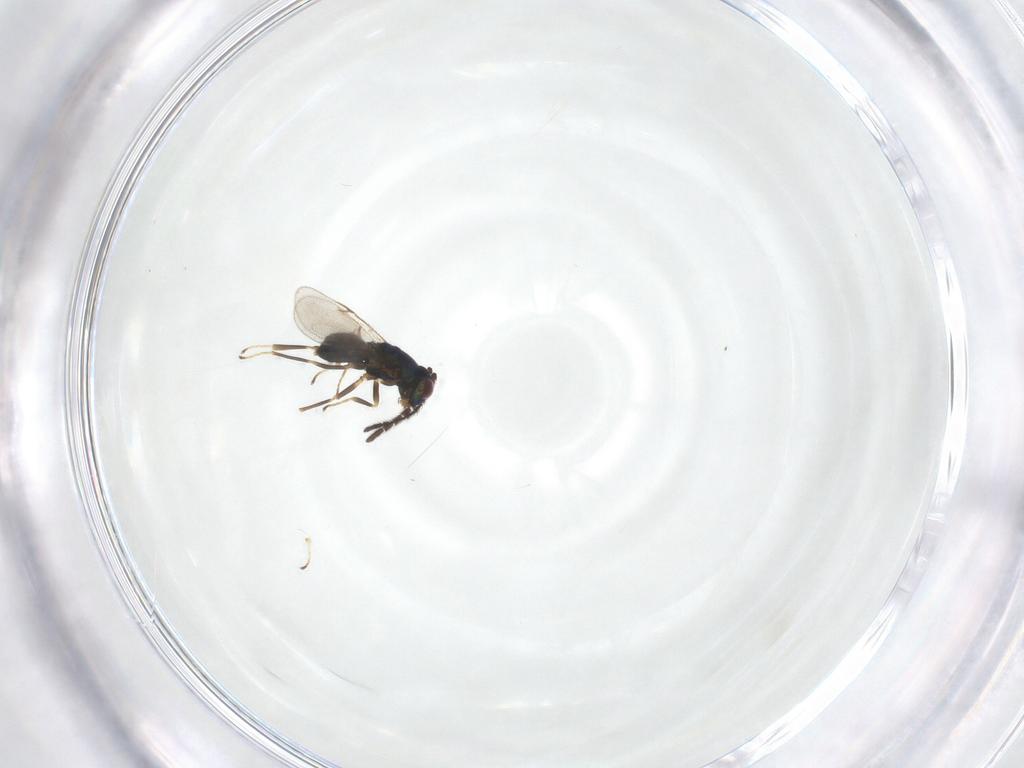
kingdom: Animalia
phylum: Arthropoda
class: Insecta
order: Hymenoptera
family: Encyrtidae
